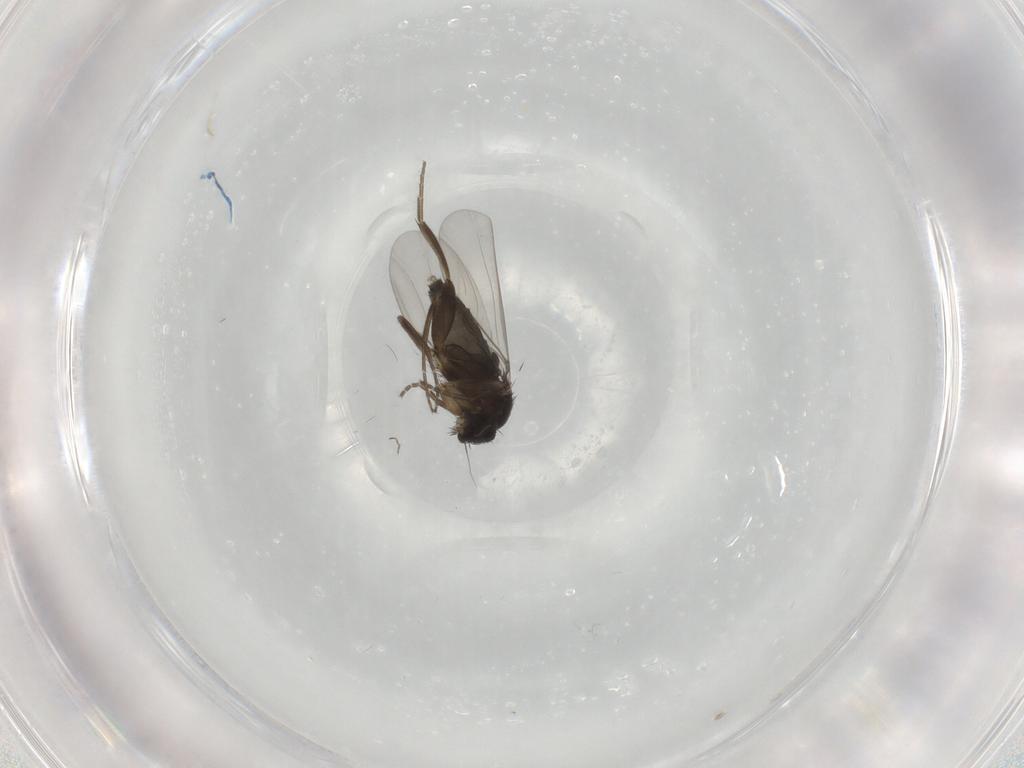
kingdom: Animalia
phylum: Arthropoda
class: Insecta
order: Diptera
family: Phoridae
